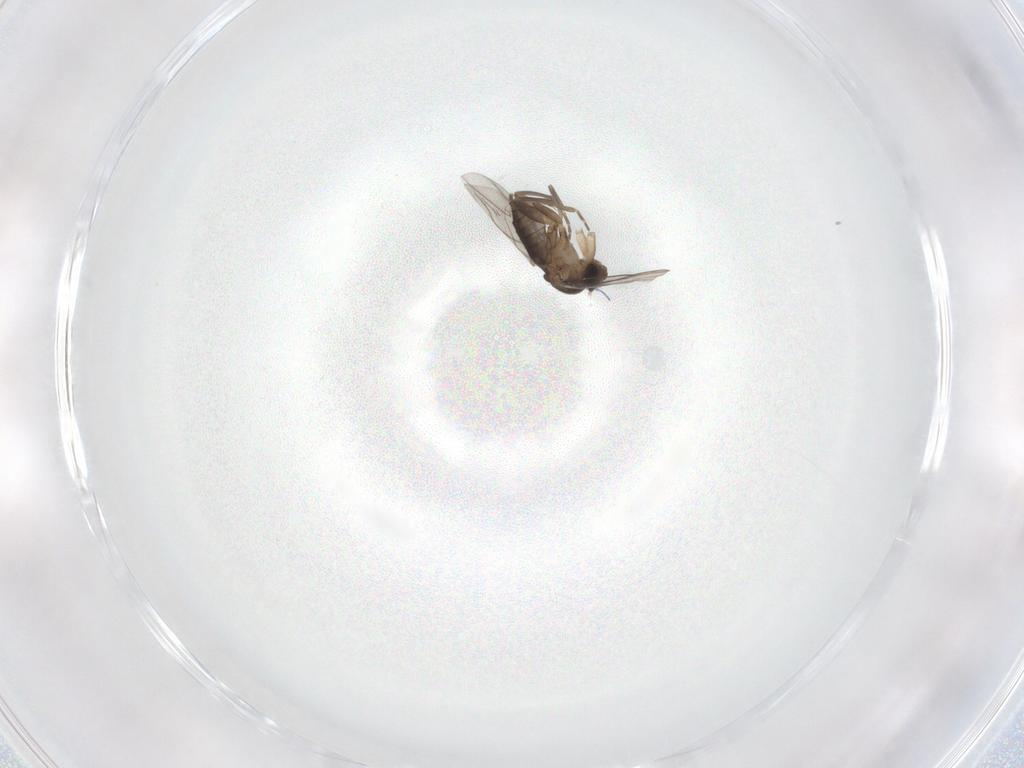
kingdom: Animalia
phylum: Arthropoda
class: Insecta
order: Diptera
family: Phoridae
